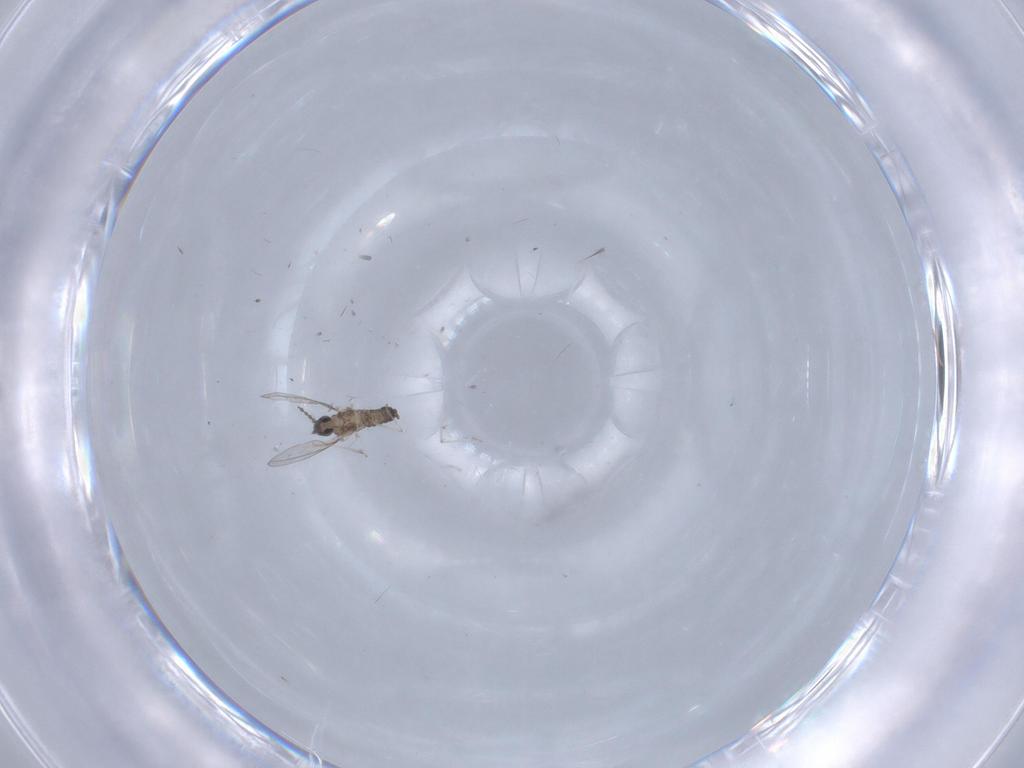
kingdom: Animalia
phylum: Arthropoda
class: Insecta
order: Diptera
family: Cecidomyiidae
